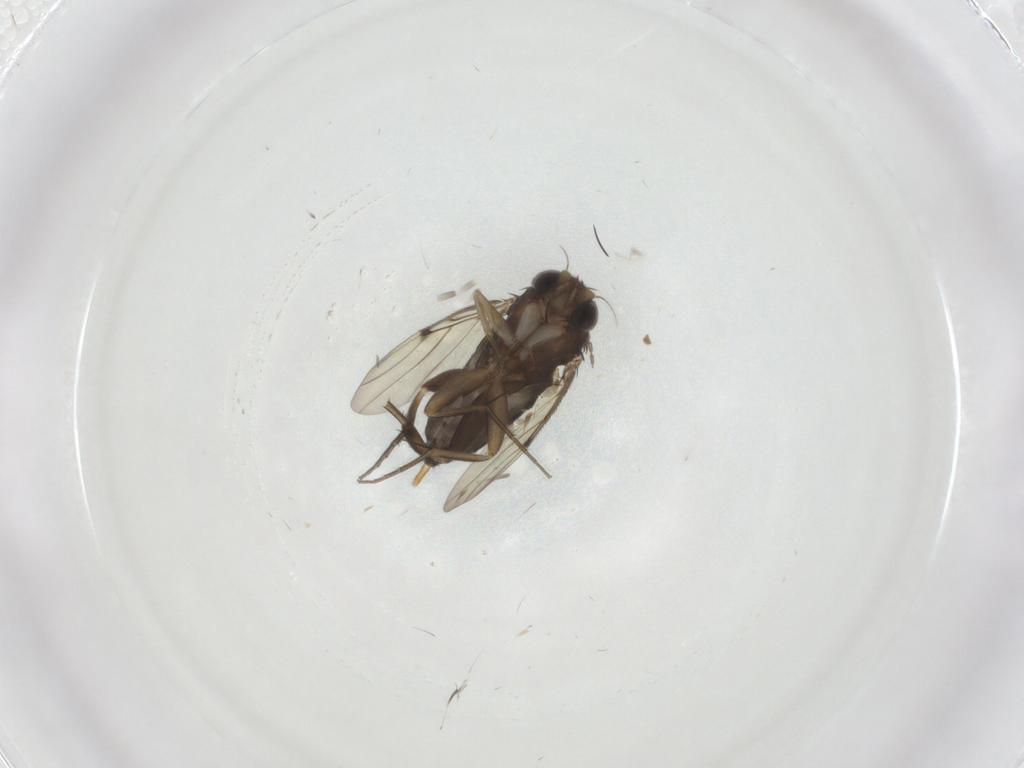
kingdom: Animalia
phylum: Arthropoda
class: Insecta
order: Diptera
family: Phoridae
